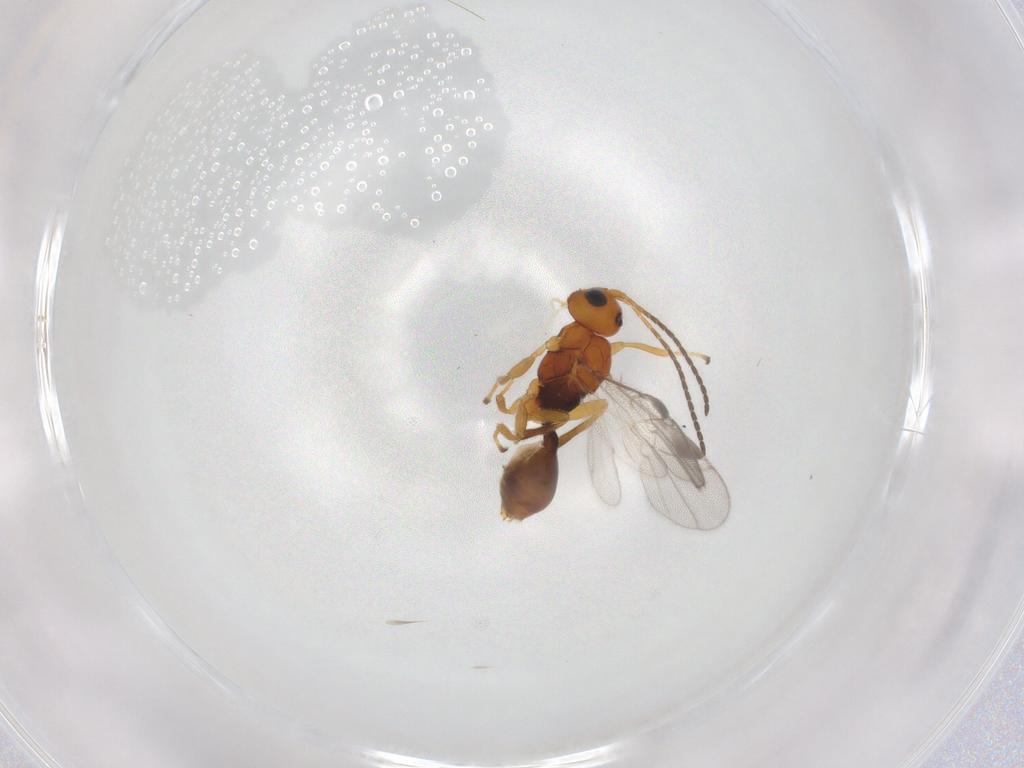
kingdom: Animalia
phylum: Arthropoda
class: Insecta
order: Hymenoptera
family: Braconidae
